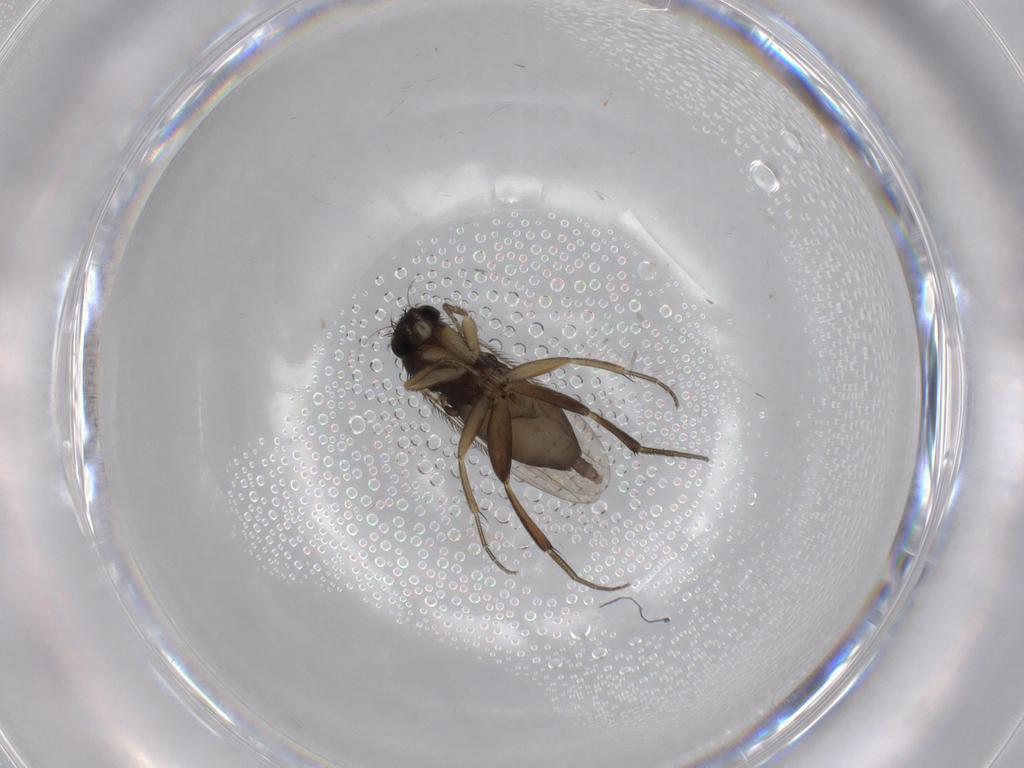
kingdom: Animalia
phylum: Arthropoda
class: Insecta
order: Diptera
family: Phoridae
